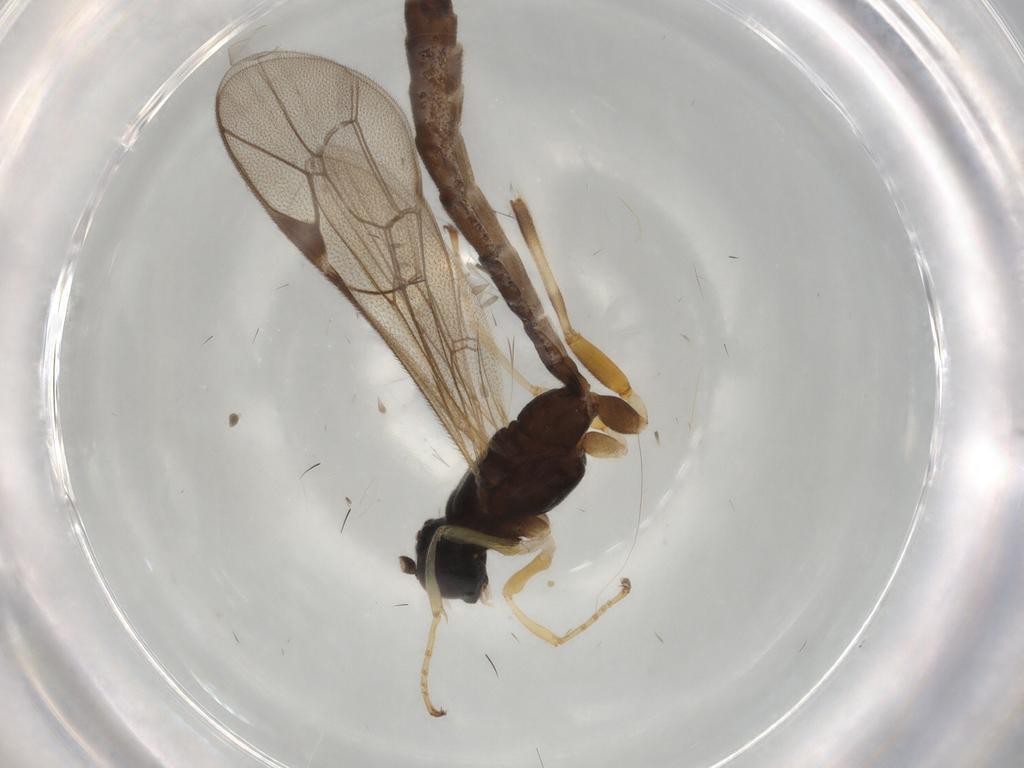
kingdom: Animalia
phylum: Arthropoda
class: Insecta
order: Hymenoptera
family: Ichneumonidae
